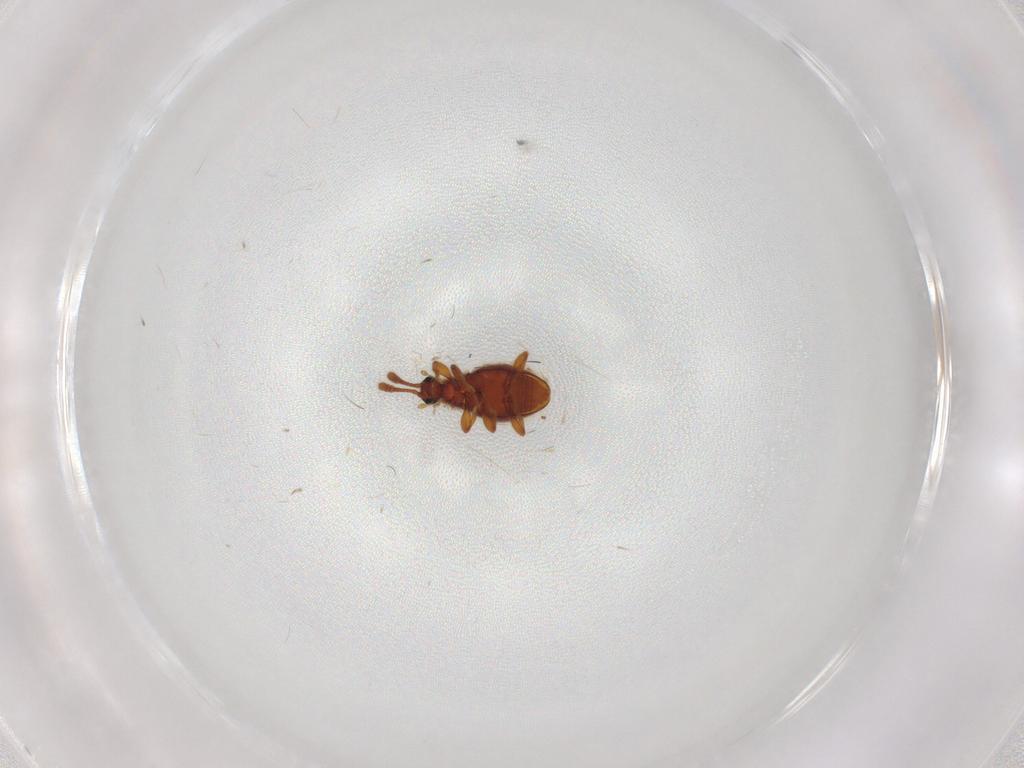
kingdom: Animalia
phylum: Arthropoda
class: Insecta
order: Coleoptera
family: Staphylinidae
